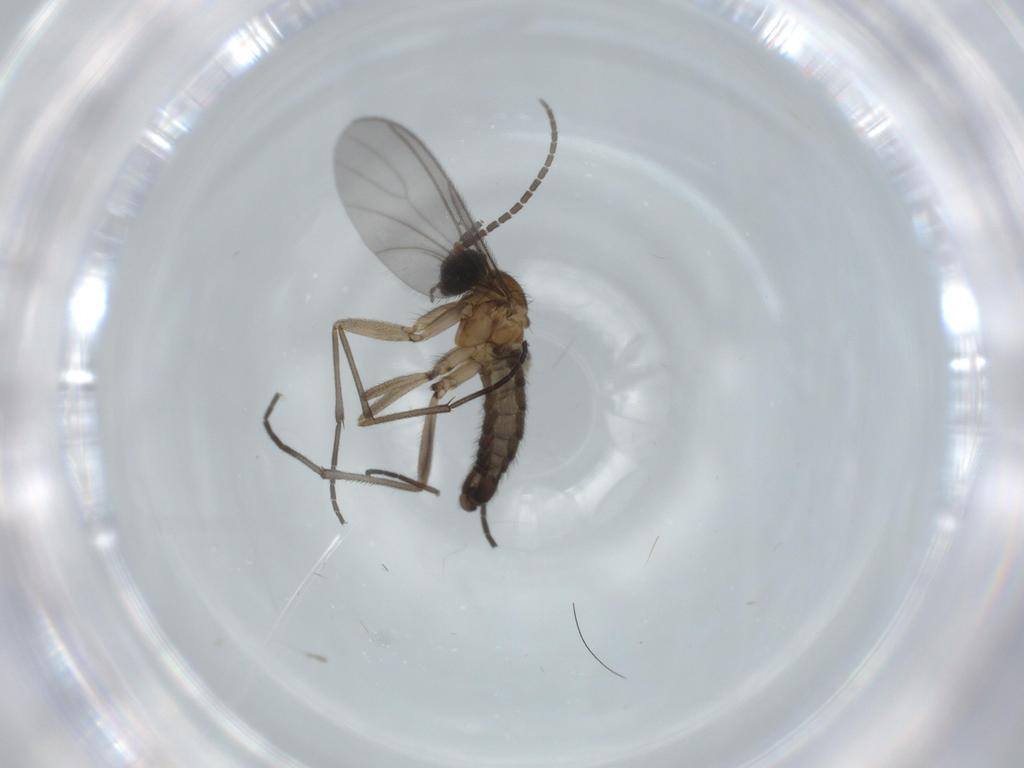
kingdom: Animalia
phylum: Arthropoda
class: Insecta
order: Diptera
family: Sciaridae
